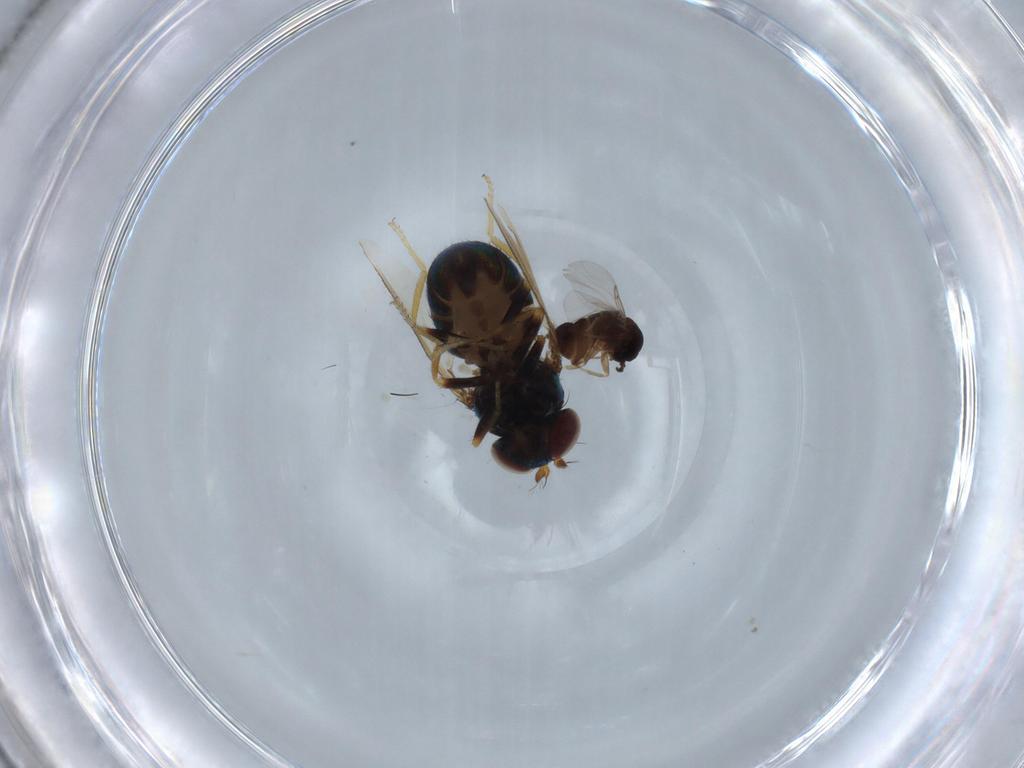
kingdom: Animalia
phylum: Arthropoda
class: Insecta
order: Diptera
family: Ephydridae
